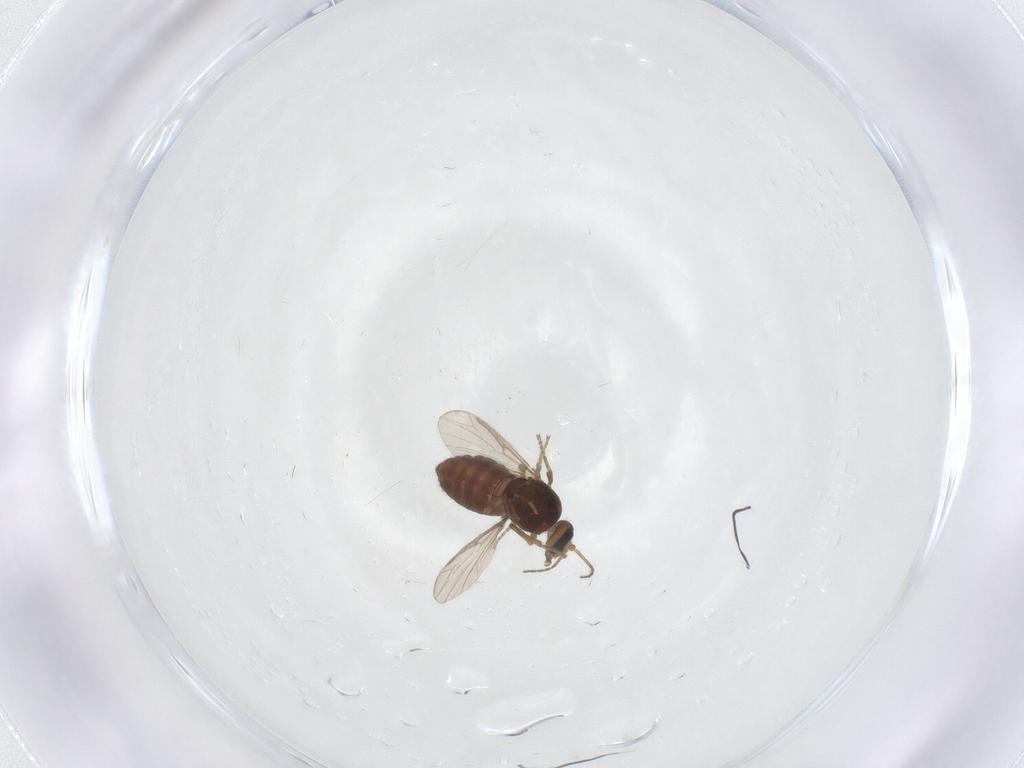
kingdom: Animalia
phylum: Arthropoda
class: Insecta
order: Diptera
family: Ceratopogonidae
